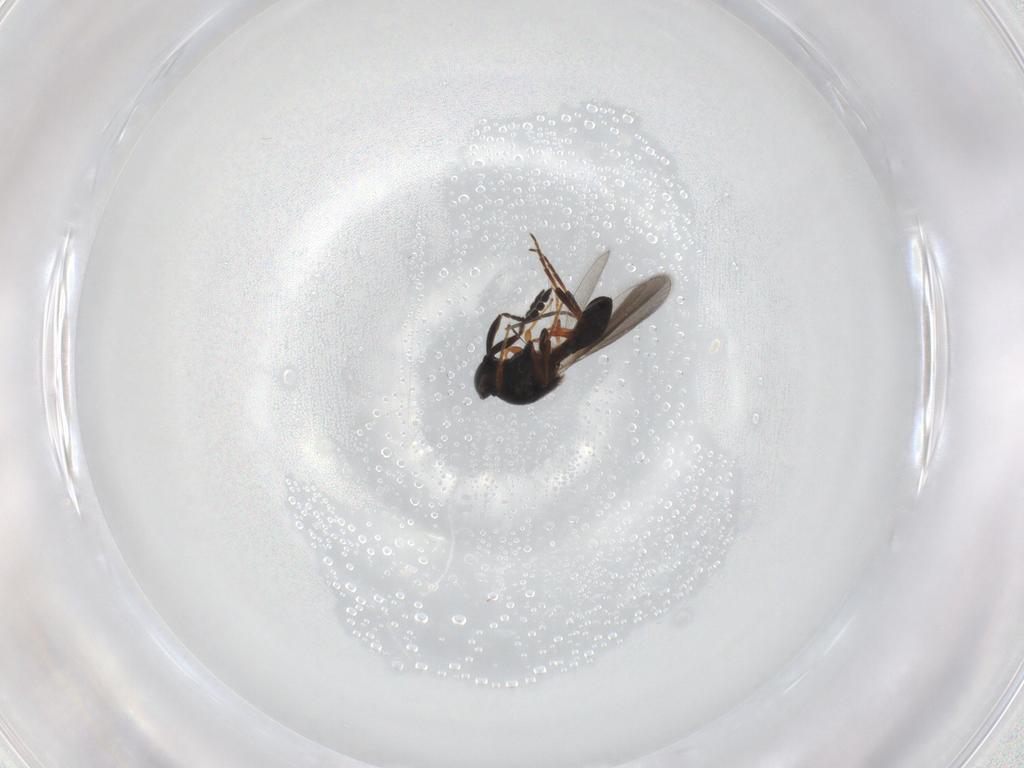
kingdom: Animalia
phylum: Arthropoda
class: Insecta
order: Hymenoptera
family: Platygastridae
